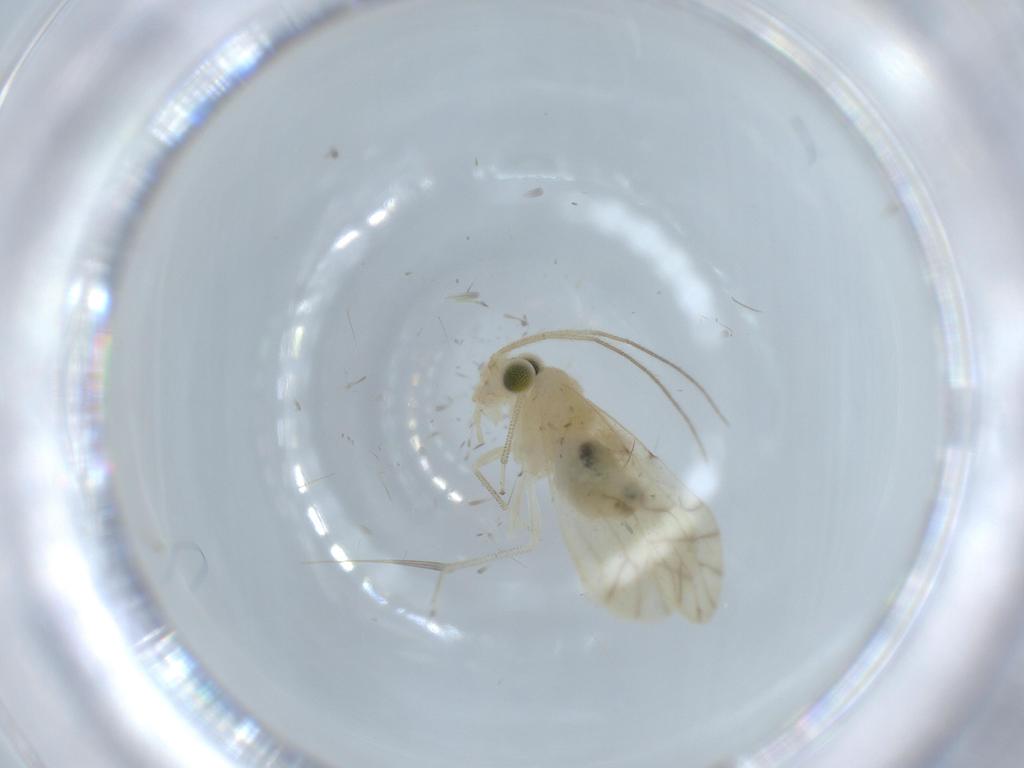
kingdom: Animalia
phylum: Arthropoda
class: Insecta
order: Psocodea
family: Caeciliusidae
